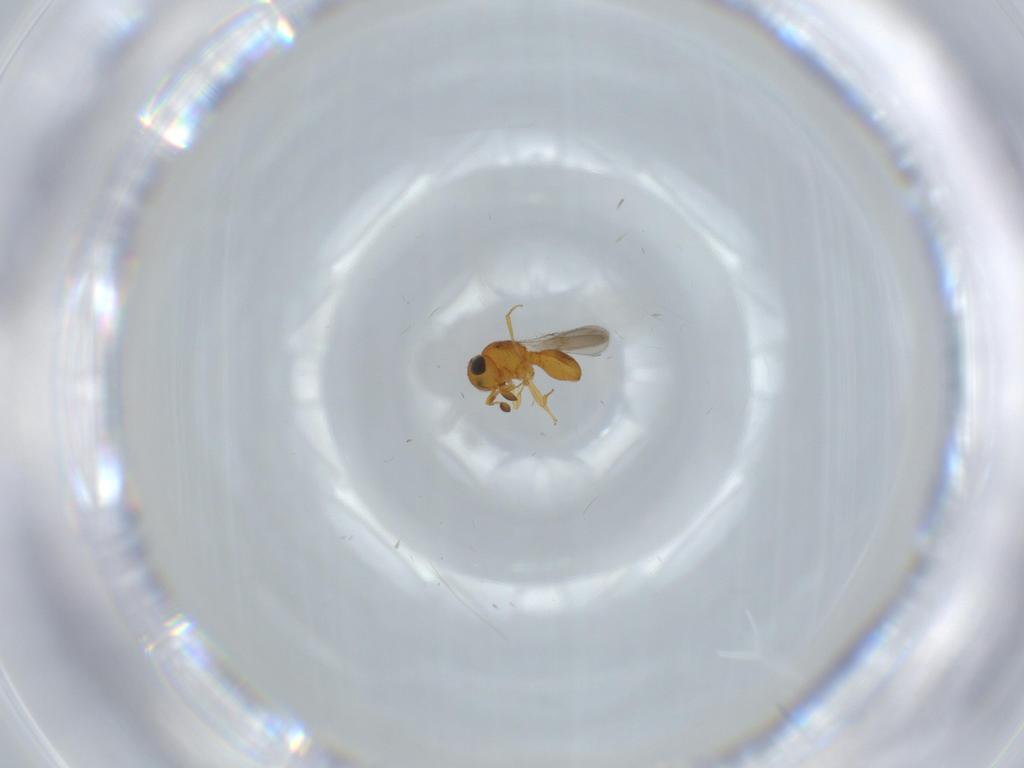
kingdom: Animalia
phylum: Arthropoda
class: Insecta
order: Hymenoptera
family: Scelionidae
